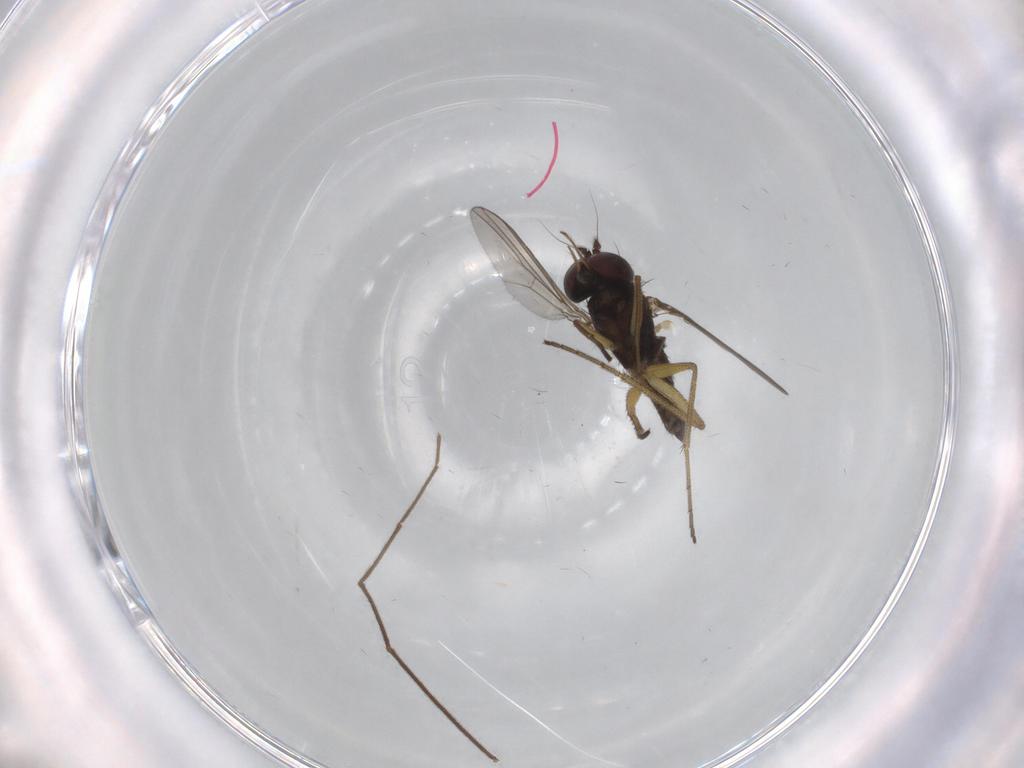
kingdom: Animalia
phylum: Arthropoda
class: Insecta
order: Diptera
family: Dolichopodidae
